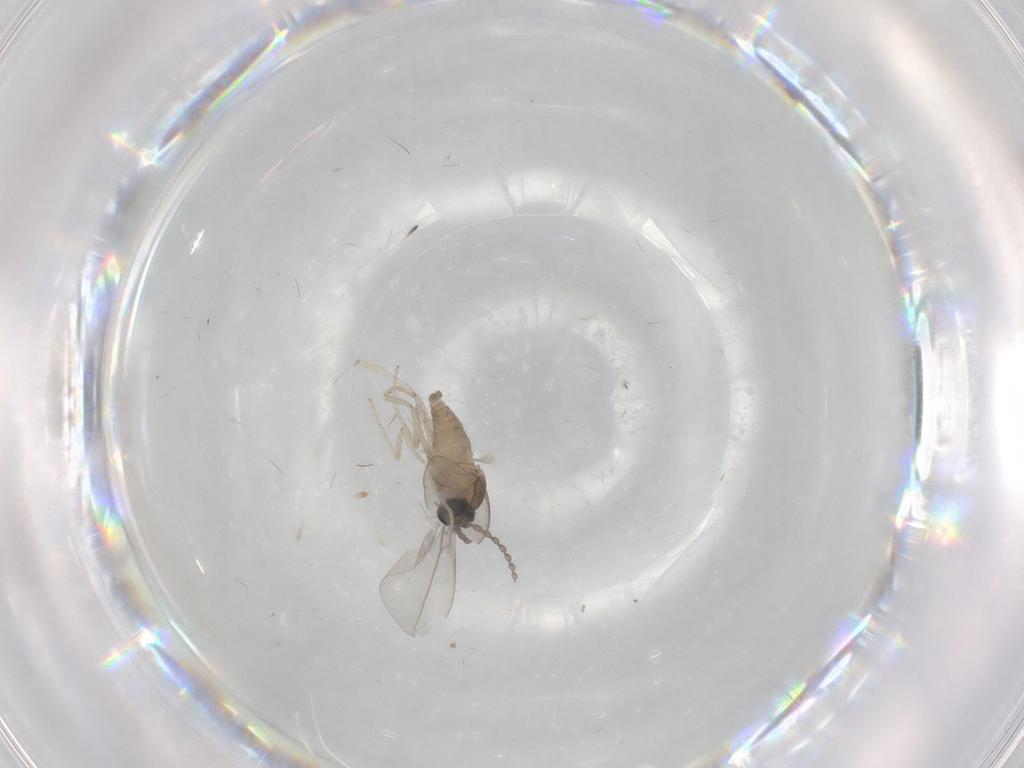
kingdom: Animalia
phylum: Arthropoda
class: Insecta
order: Diptera
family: Cecidomyiidae
